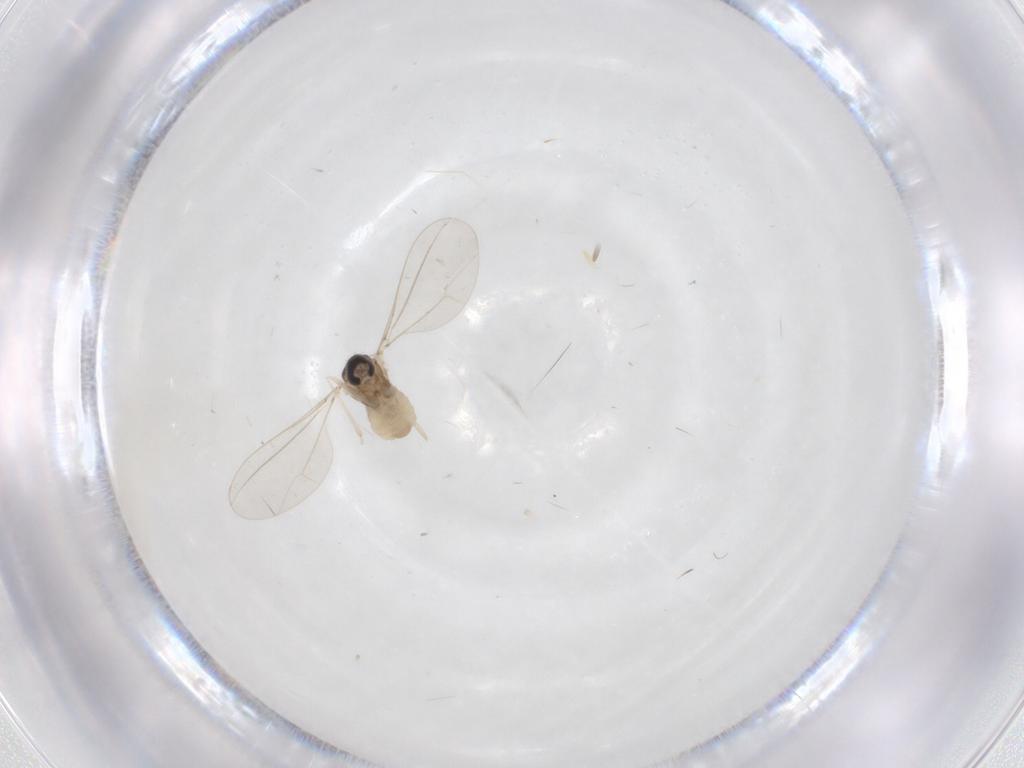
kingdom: Animalia
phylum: Arthropoda
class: Insecta
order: Diptera
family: Cecidomyiidae
